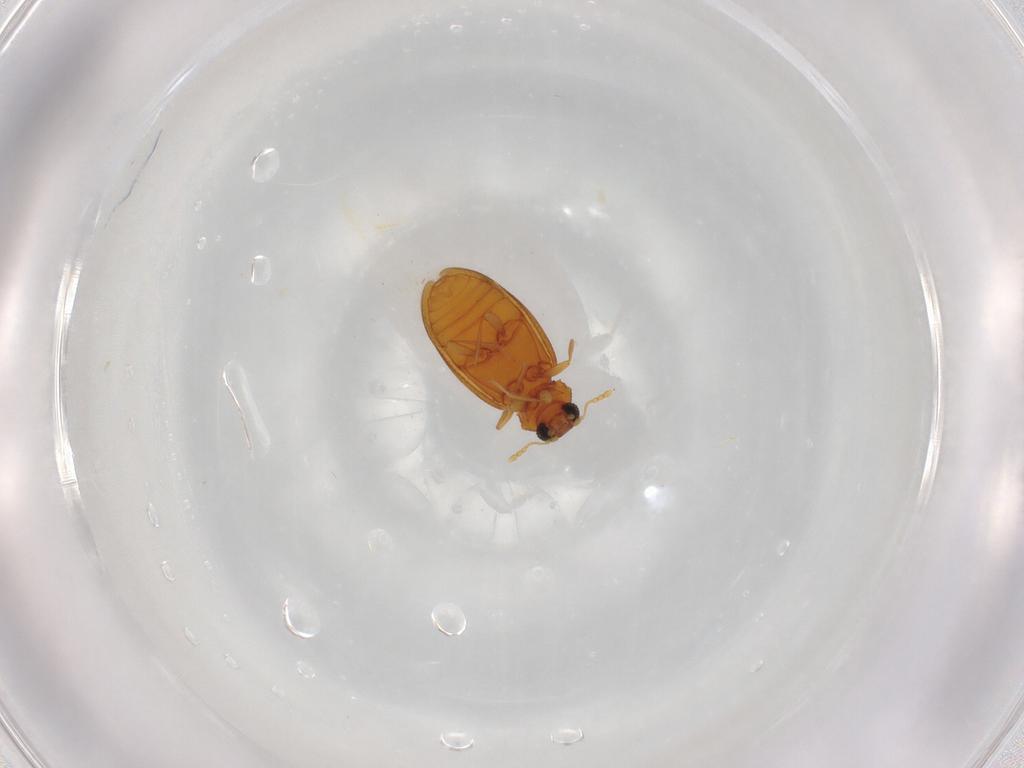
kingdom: Animalia
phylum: Arthropoda
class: Insecta
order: Coleoptera
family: Latridiidae
